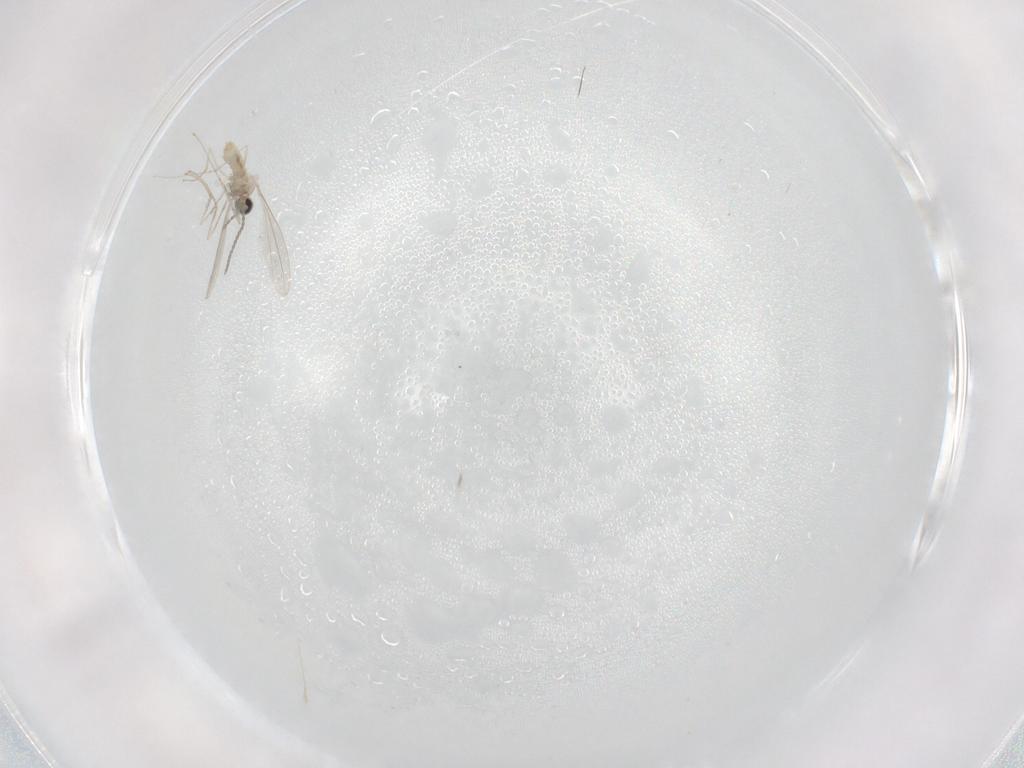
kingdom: Animalia
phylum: Arthropoda
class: Insecta
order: Diptera
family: Cecidomyiidae
